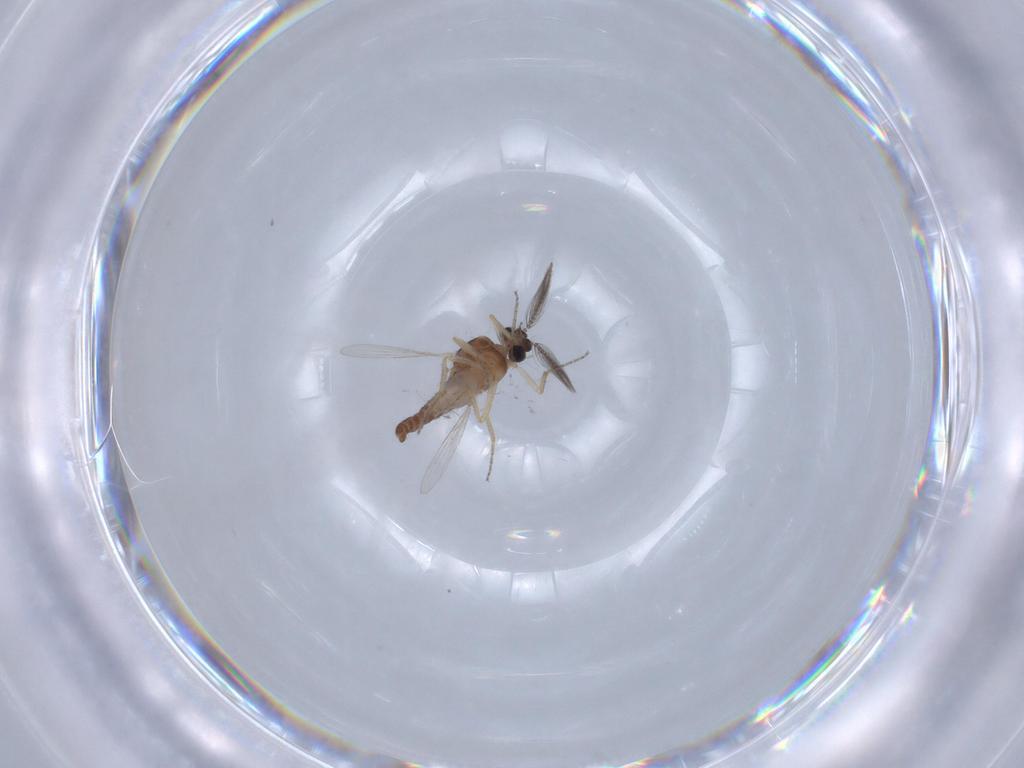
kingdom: Animalia
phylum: Arthropoda
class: Insecta
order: Diptera
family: Ceratopogonidae
